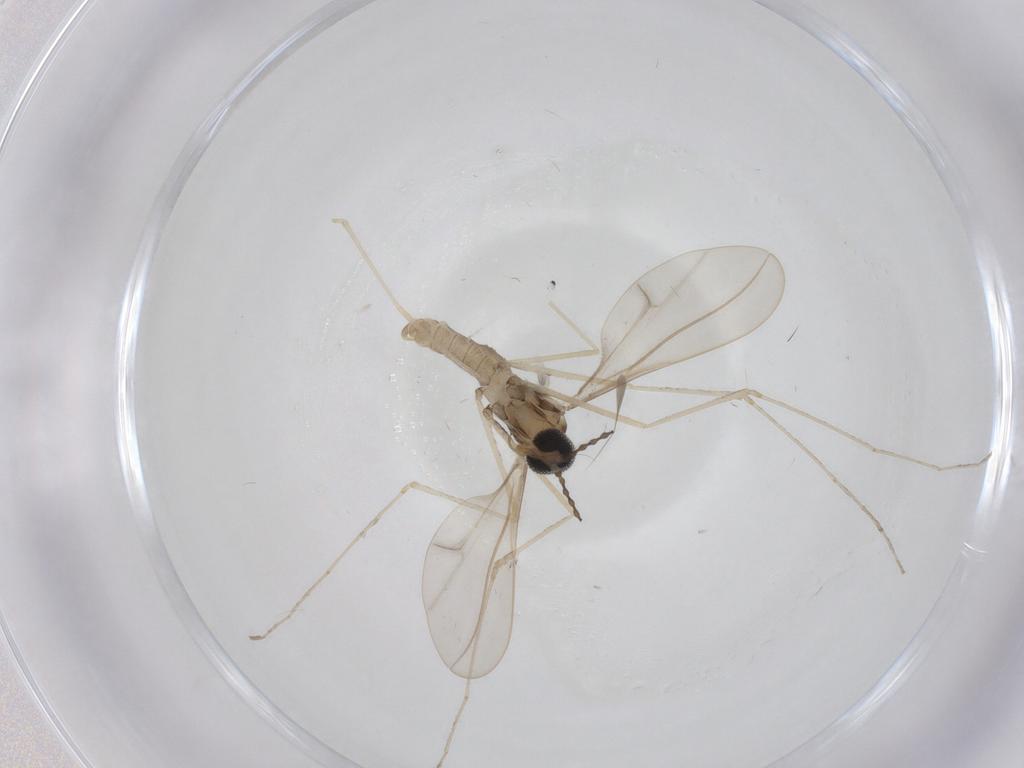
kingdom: Animalia
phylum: Arthropoda
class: Insecta
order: Diptera
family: Cecidomyiidae
